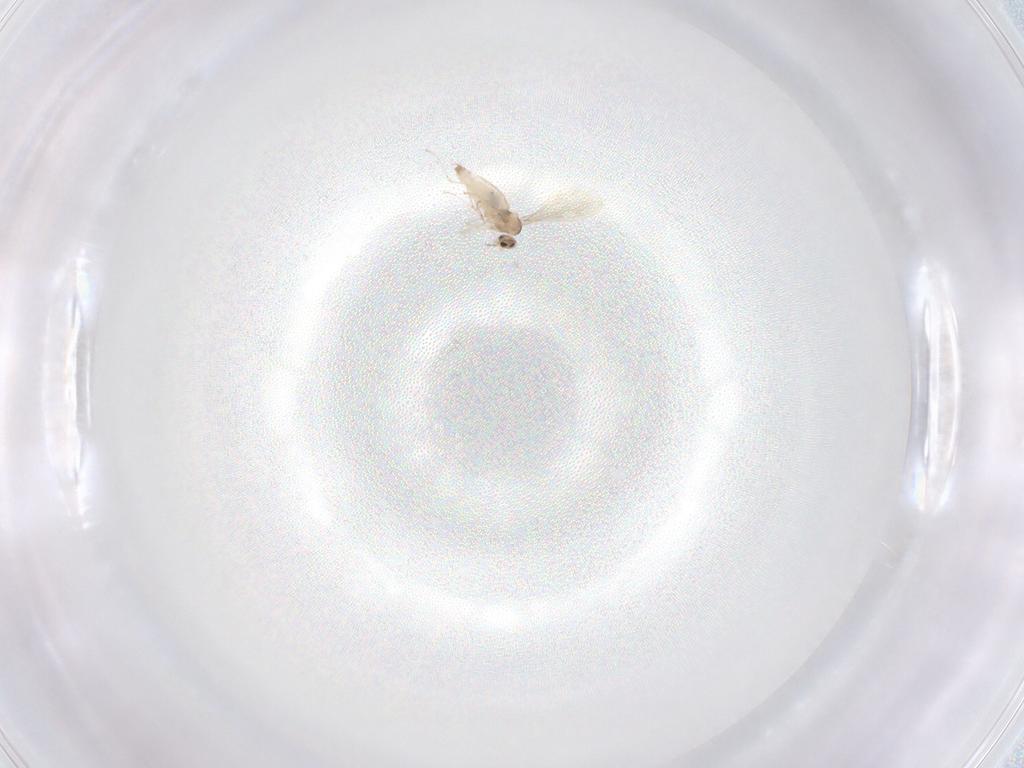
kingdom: Animalia
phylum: Arthropoda
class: Insecta
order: Diptera
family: Cecidomyiidae
